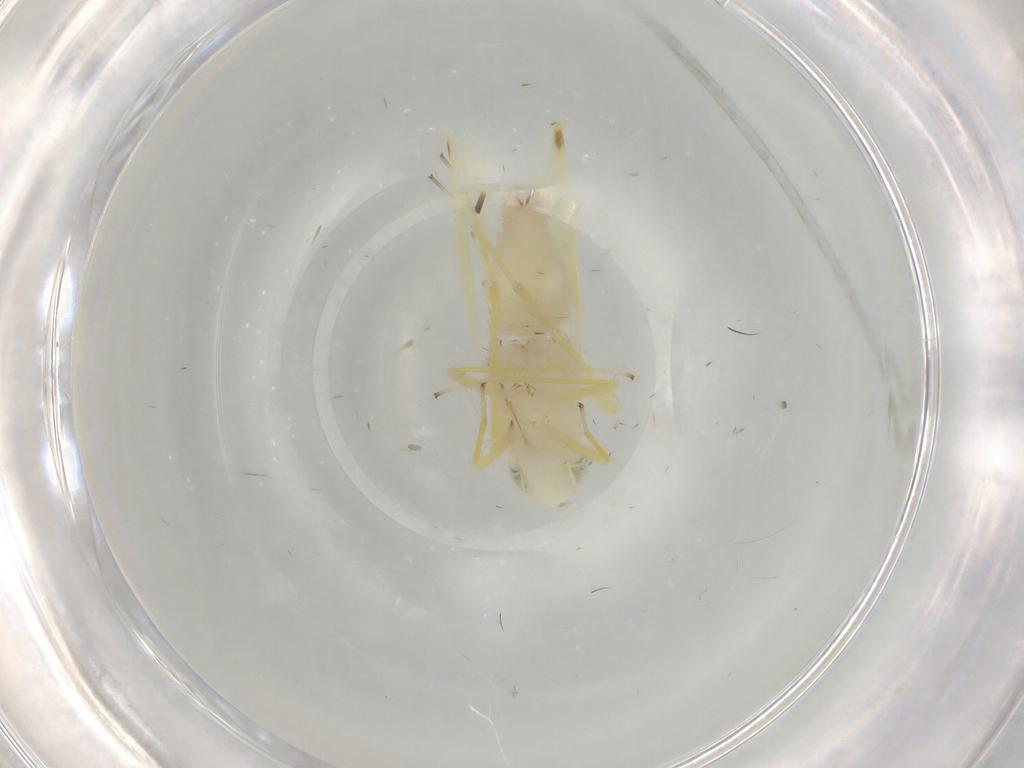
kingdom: Animalia
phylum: Arthropoda
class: Insecta
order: Hemiptera
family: Cicadellidae
